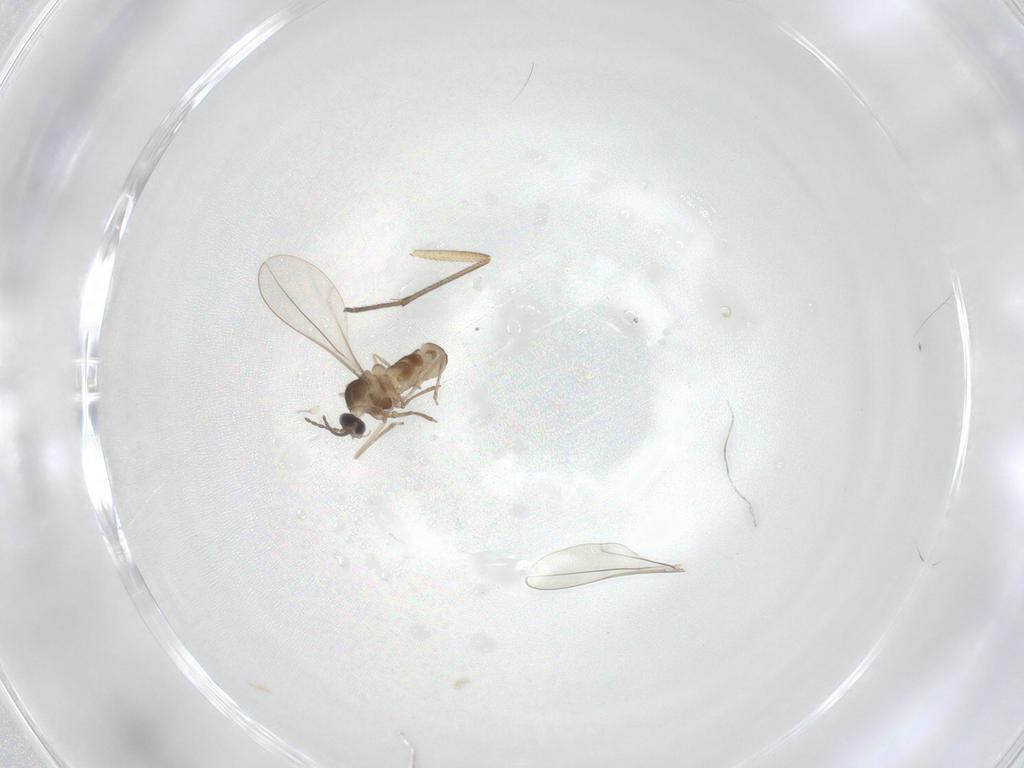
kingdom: Animalia
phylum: Arthropoda
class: Insecta
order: Diptera
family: Cecidomyiidae
